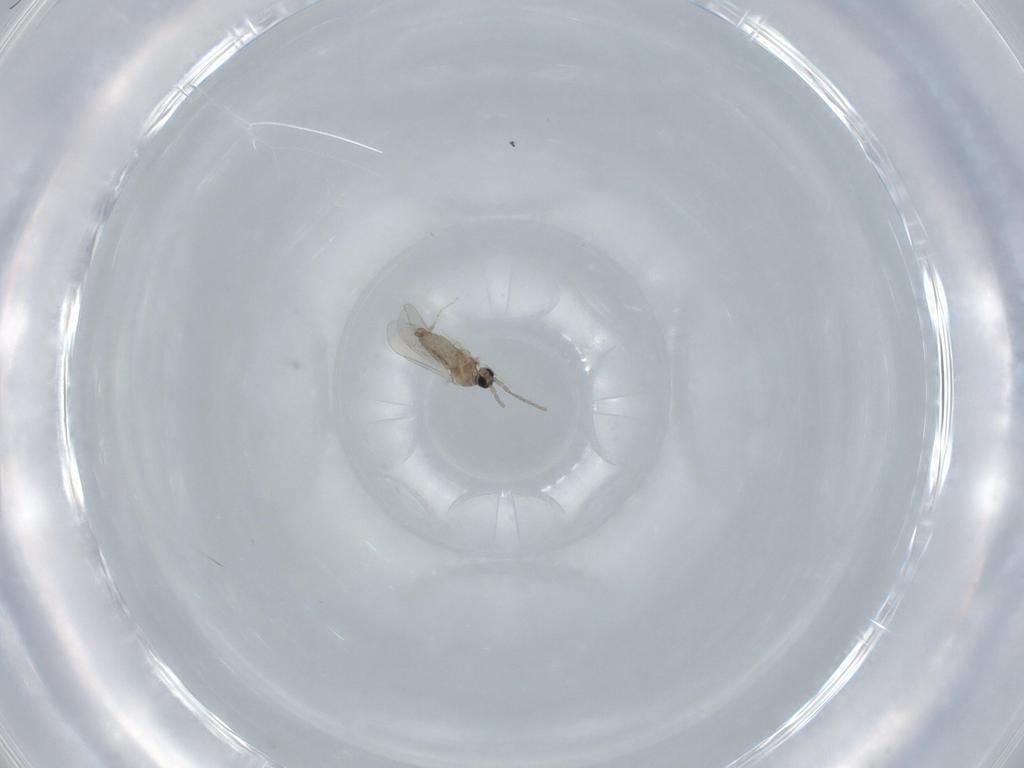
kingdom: Animalia
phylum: Arthropoda
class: Insecta
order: Diptera
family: Cecidomyiidae
